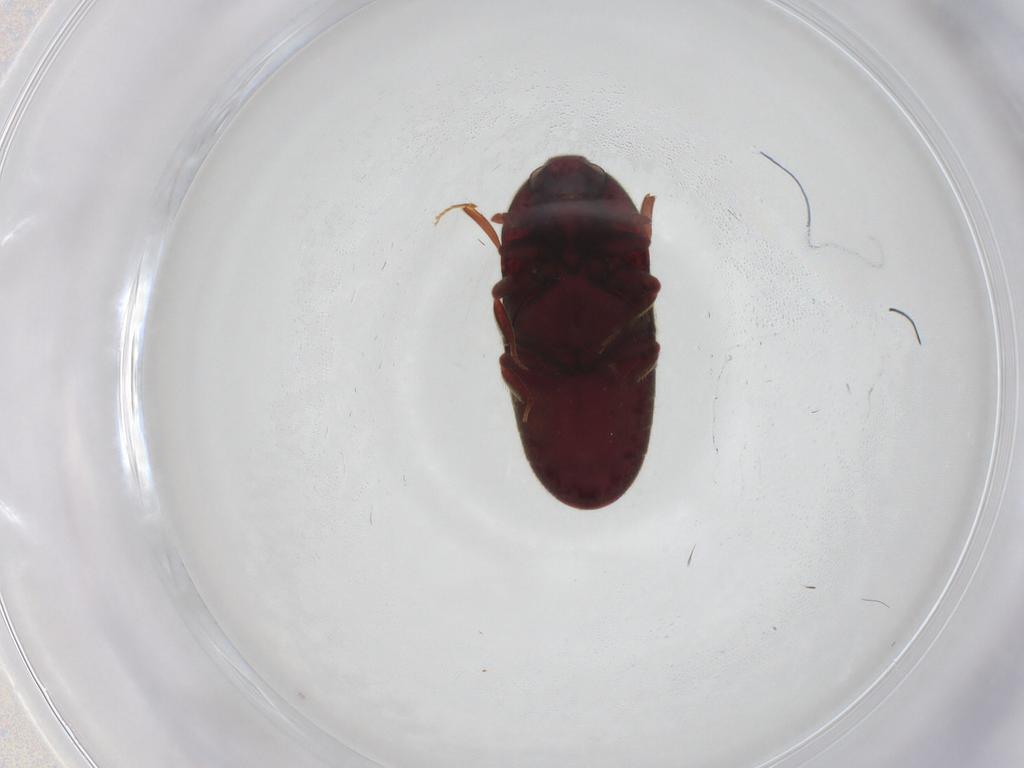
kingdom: Animalia
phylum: Arthropoda
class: Insecta
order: Coleoptera
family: Throscidae
